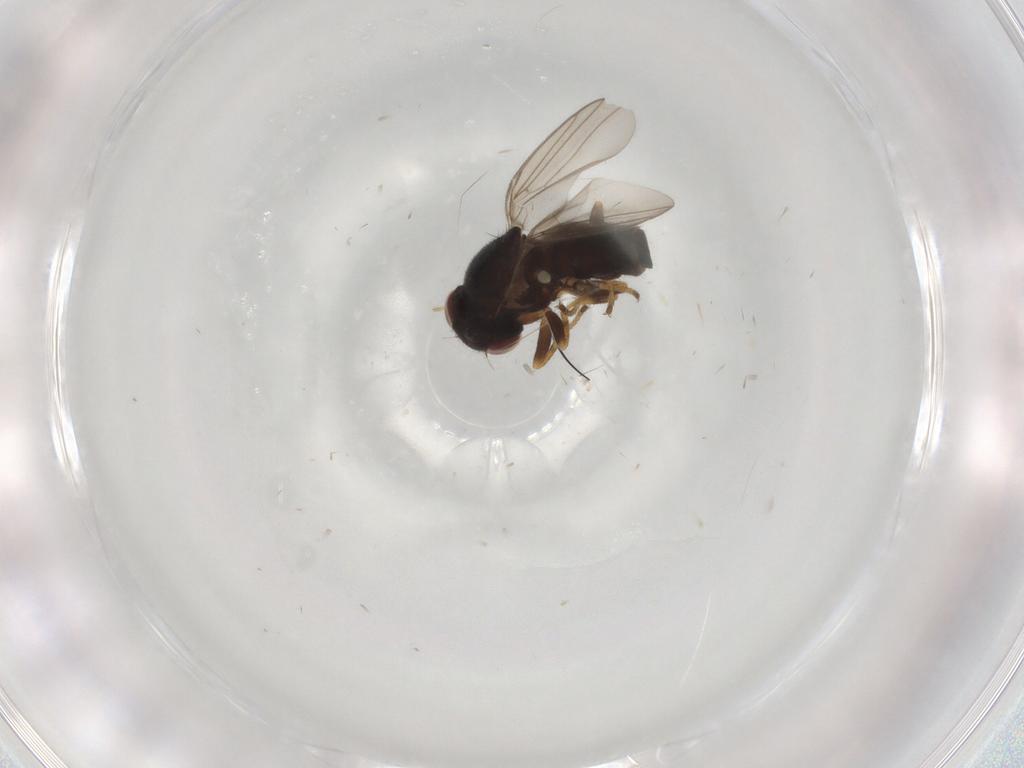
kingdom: Animalia
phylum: Arthropoda
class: Insecta
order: Diptera
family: Chloropidae
